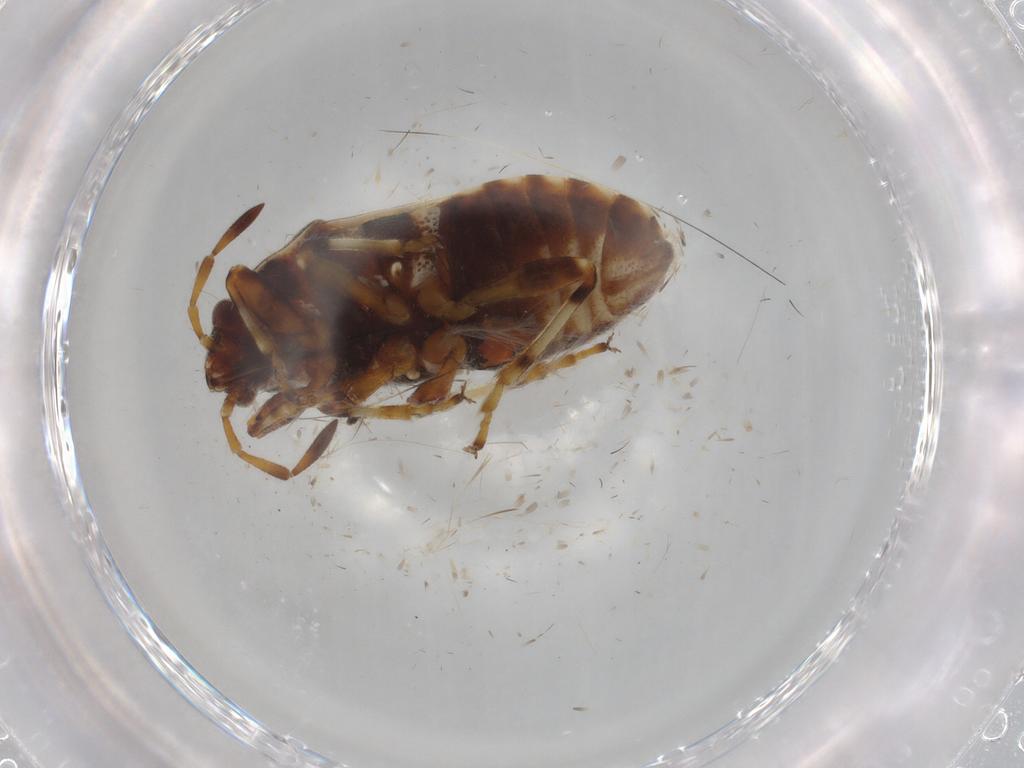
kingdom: Animalia
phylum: Arthropoda
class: Insecta
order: Hemiptera
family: Lygaeidae
